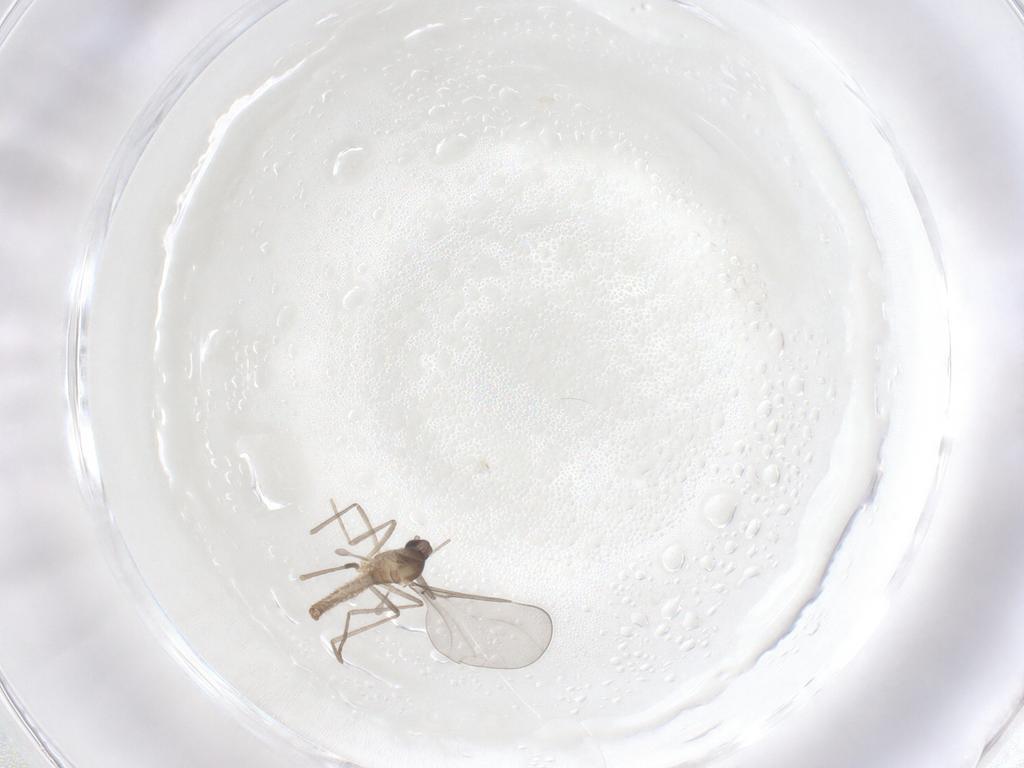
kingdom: Animalia
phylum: Arthropoda
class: Insecta
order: Diptera
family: Cecidomyiidae
